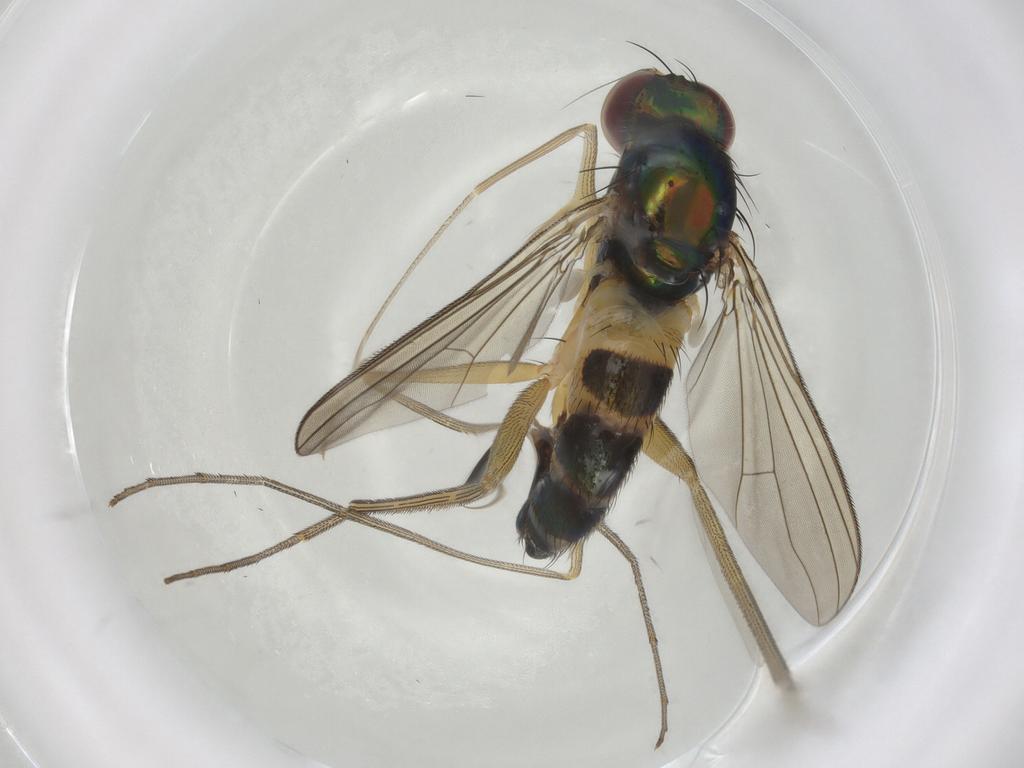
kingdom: Animalia
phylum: Arthropoda
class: Insecta
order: Diptera
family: Dolichopodidae
